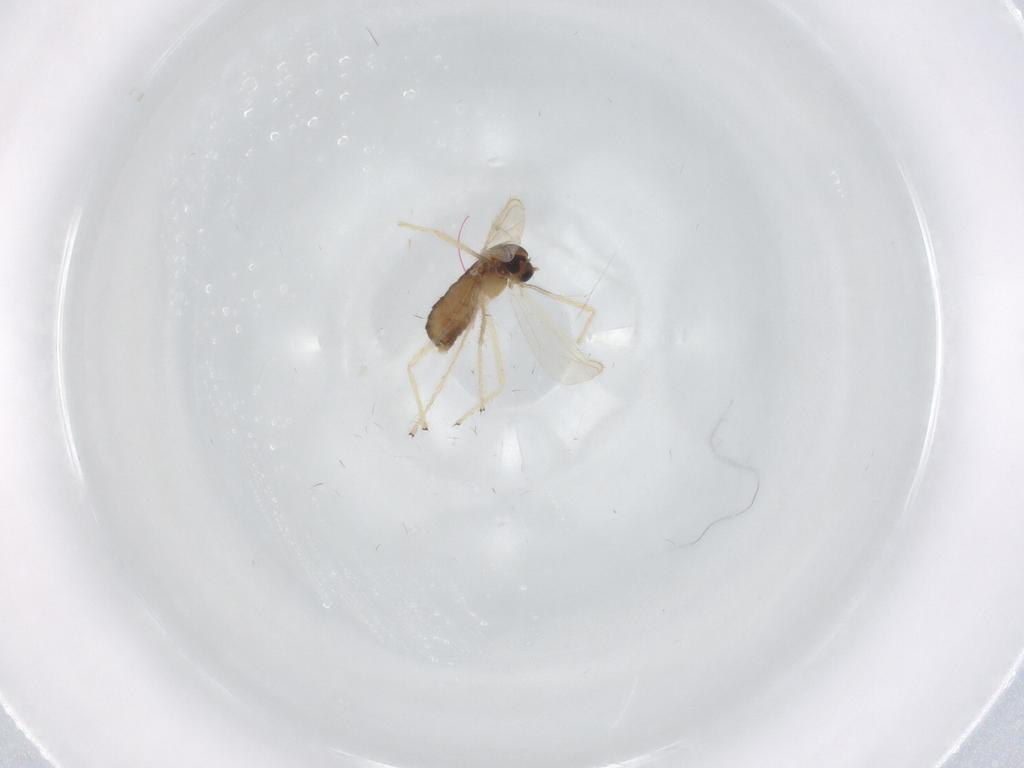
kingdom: Animalia
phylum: Arthropoda
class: Insecta
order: Diptera
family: Chironomidae
